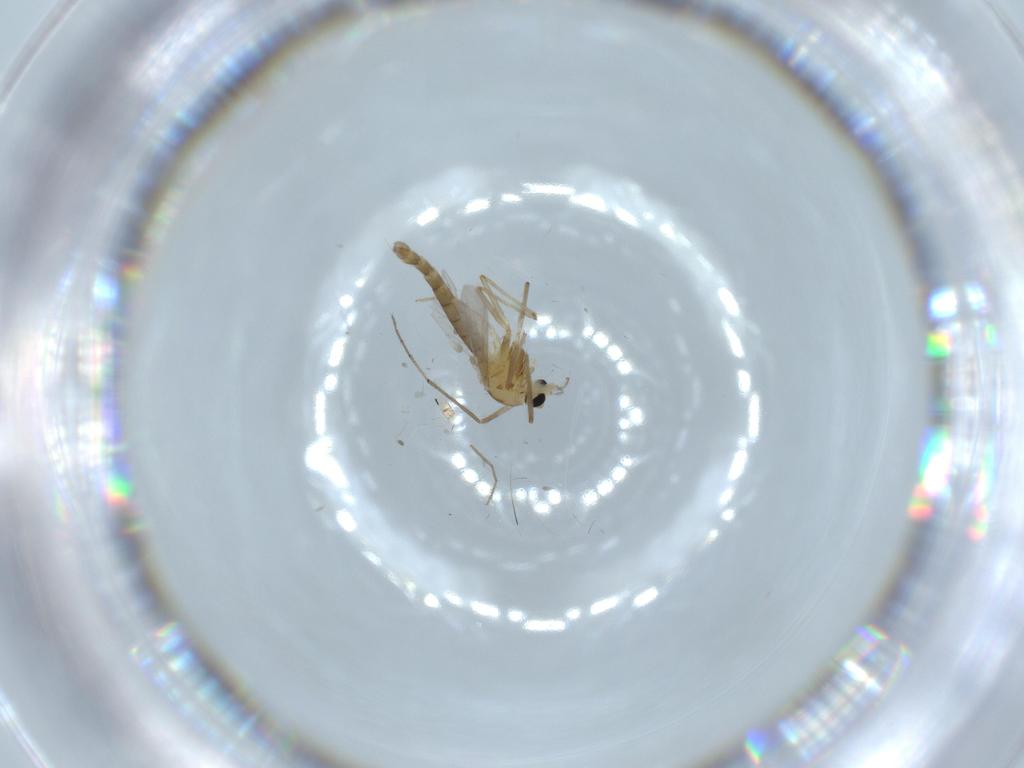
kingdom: Animalia
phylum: Arthropoda
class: Insecta
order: Diptera
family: Chironomidae
